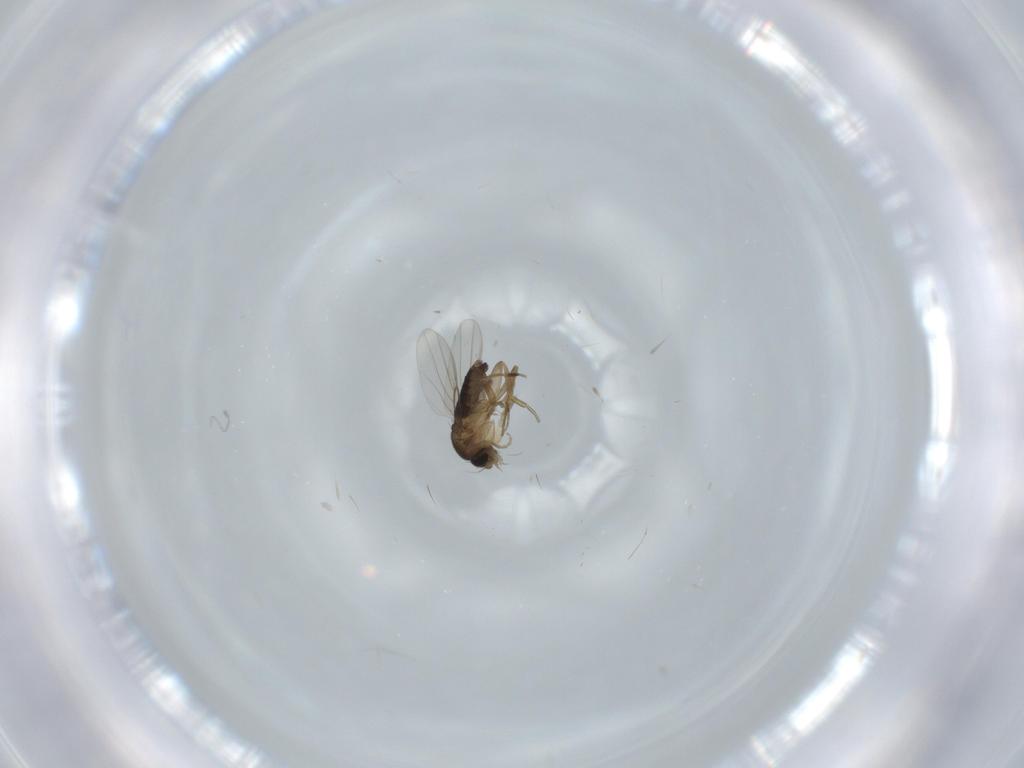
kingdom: Animalia
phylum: Arthropoda
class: Insecta
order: Diptera
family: Phoridae
